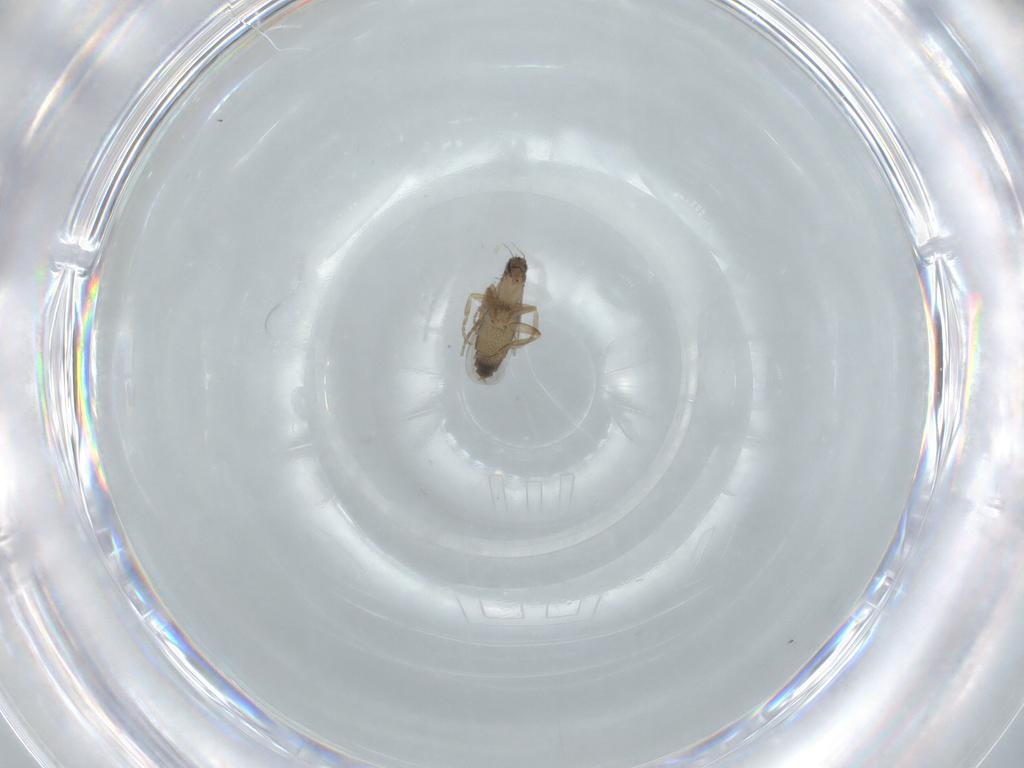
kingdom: Animalia
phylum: Arthropoda
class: Insecta
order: Diptera
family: Phoridae
